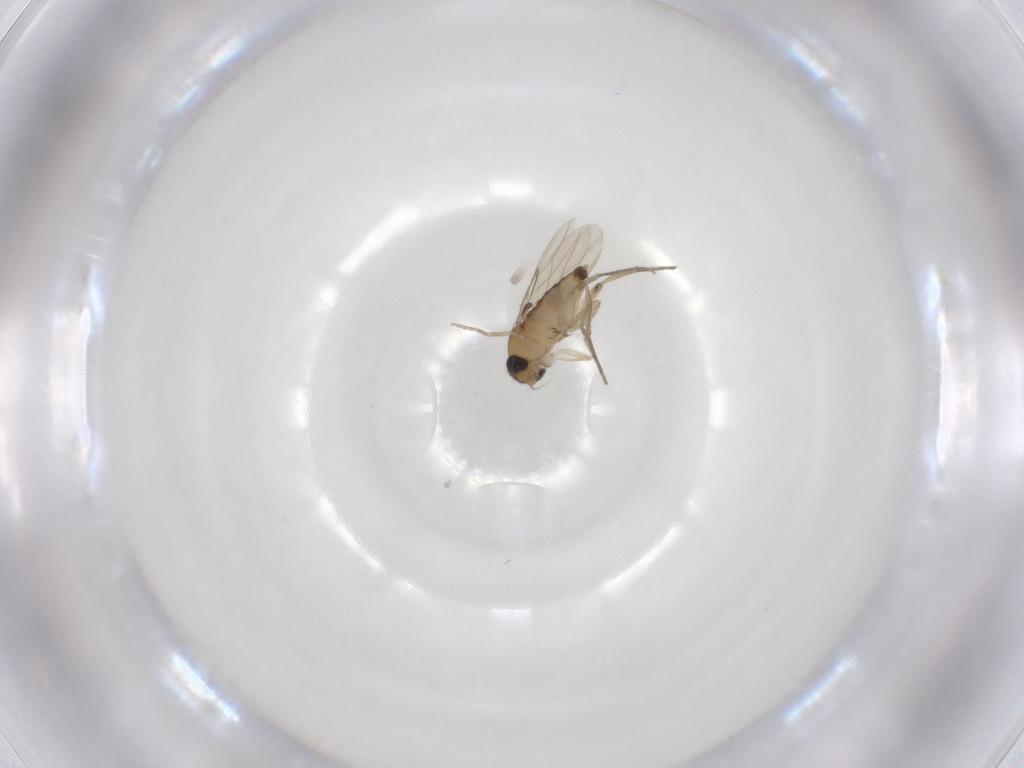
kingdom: Animalia
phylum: Arthropoda
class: Insecta
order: Diptera
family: Phoridae
